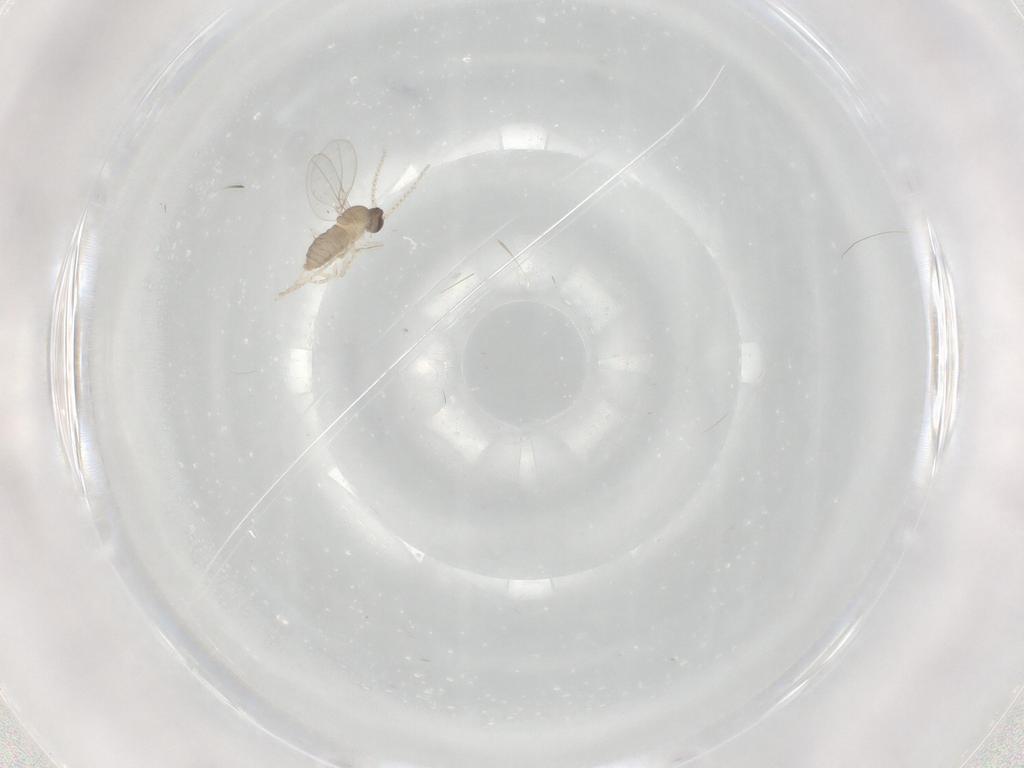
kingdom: Animalia
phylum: Arthropoda
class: Insecta
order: Diptera
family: Cecidomyiidae
